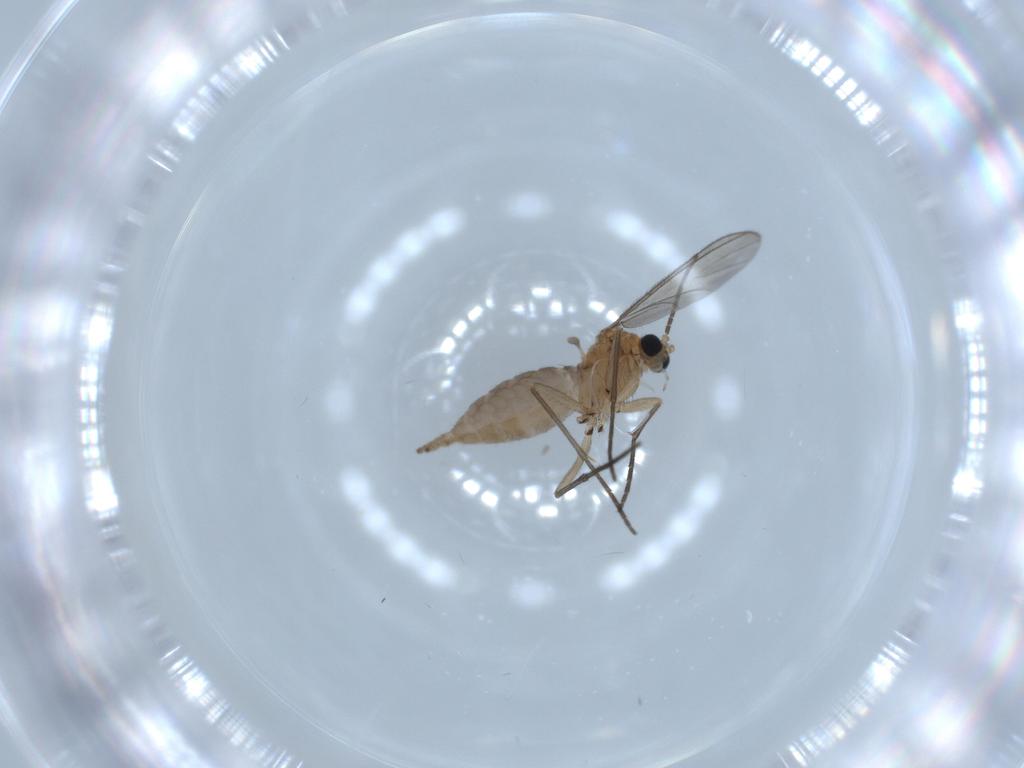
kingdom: Animalia
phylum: Arthropoda
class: Insecta
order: Diptera
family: Sciaridae
